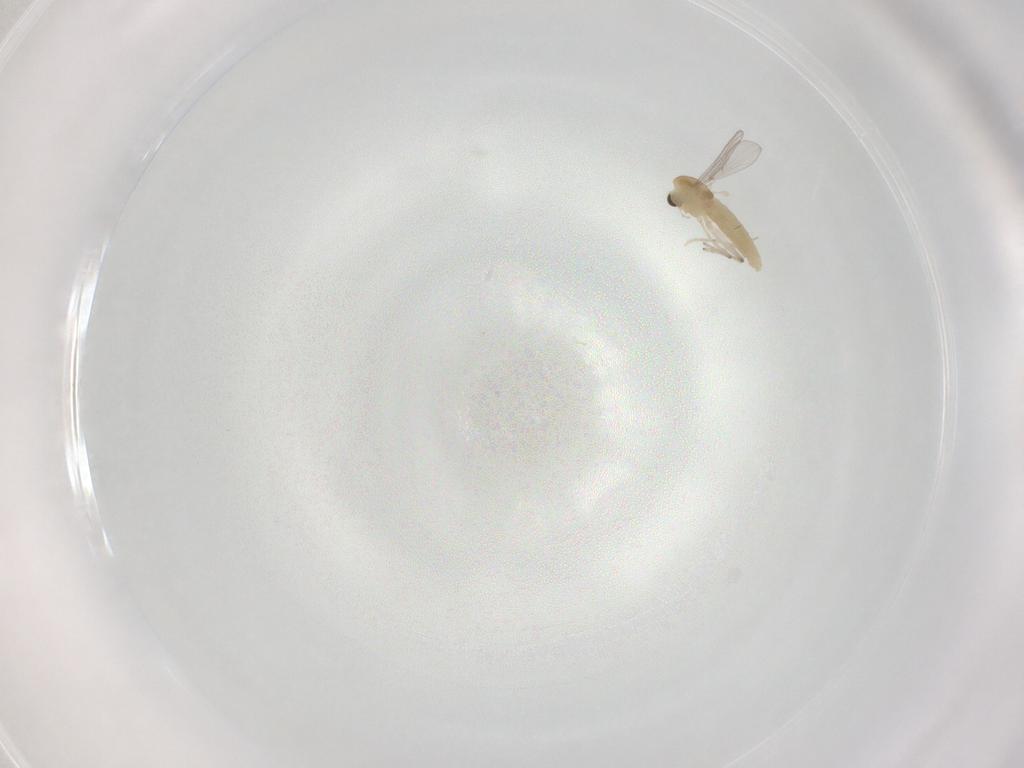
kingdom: Animalia
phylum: Arthropoda
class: Insecta
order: Diptera
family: Chironomidae
